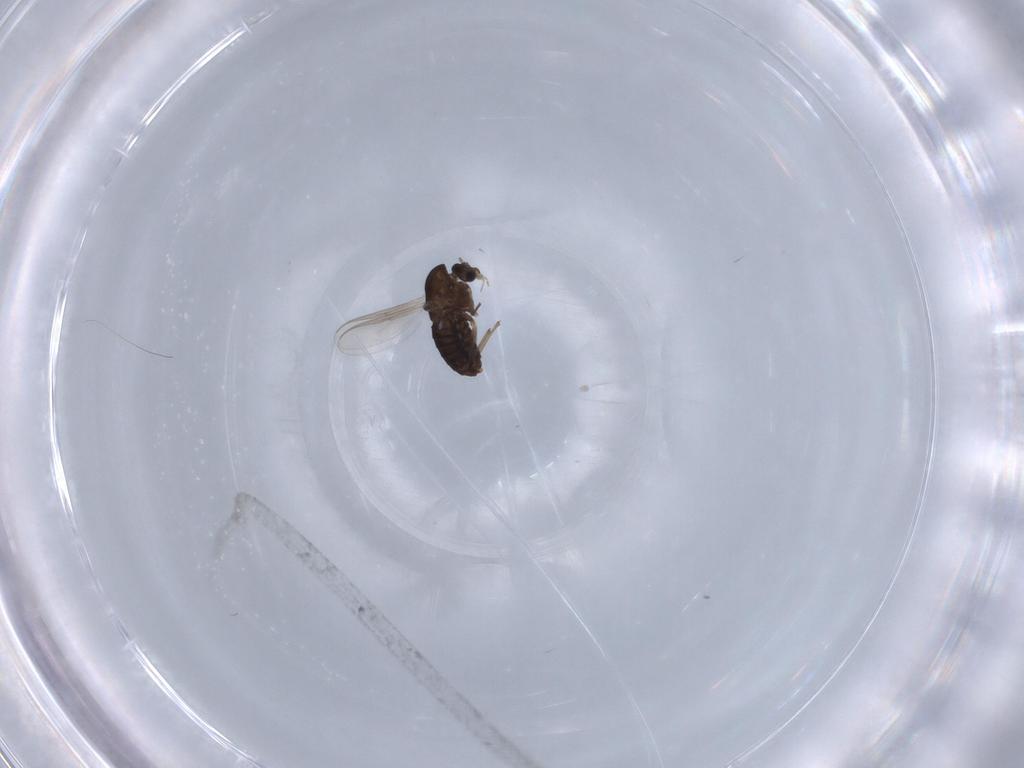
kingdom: Animalia
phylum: Arthropoda
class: Insecta
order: Diptera
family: Chironomidae
